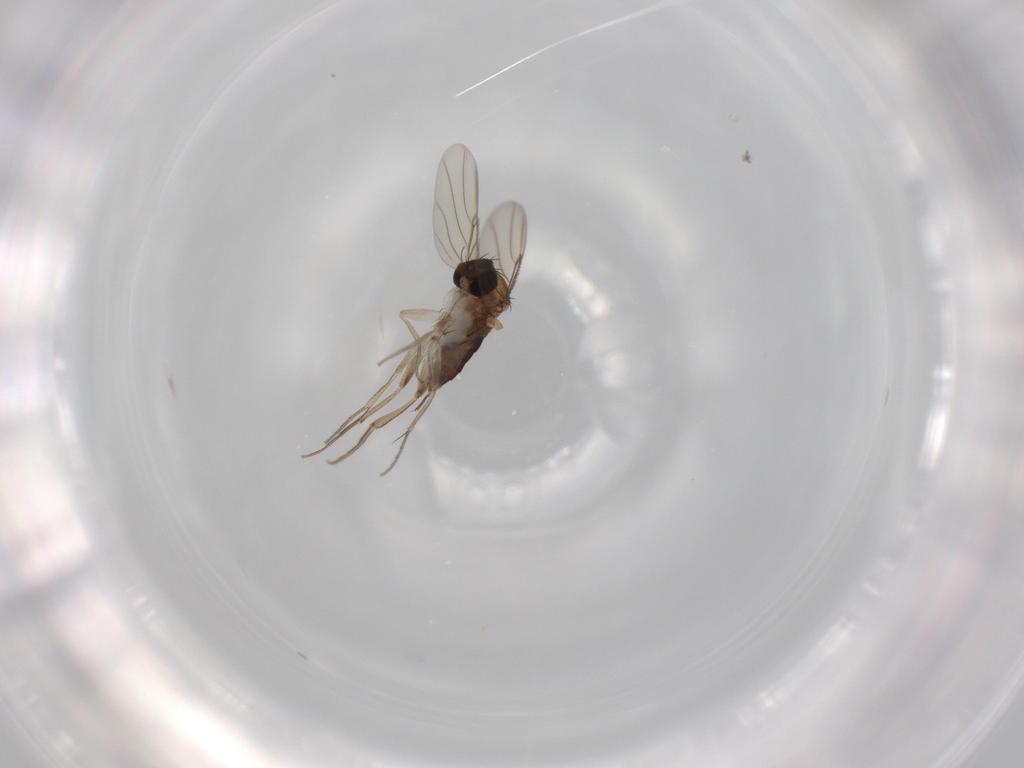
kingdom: Animalia
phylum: Arthropoda
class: Insecta
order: Diptera
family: Phoridae
